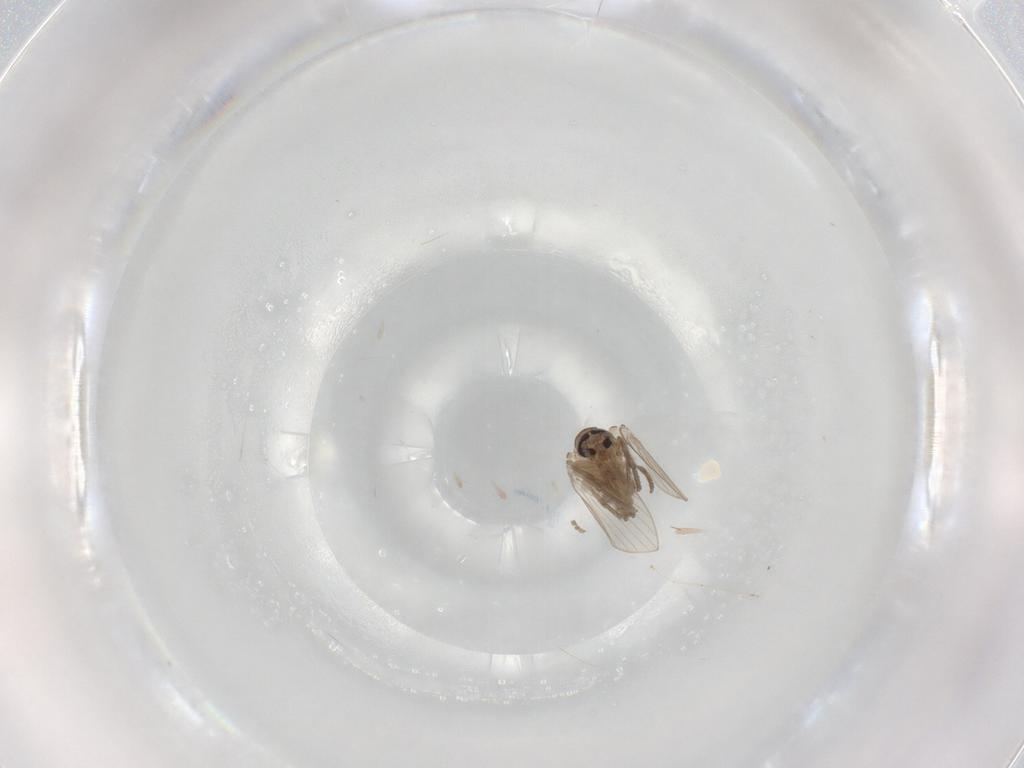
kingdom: Animalia
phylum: Arthropoda
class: Insecta
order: Diptera
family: Psychodidae
